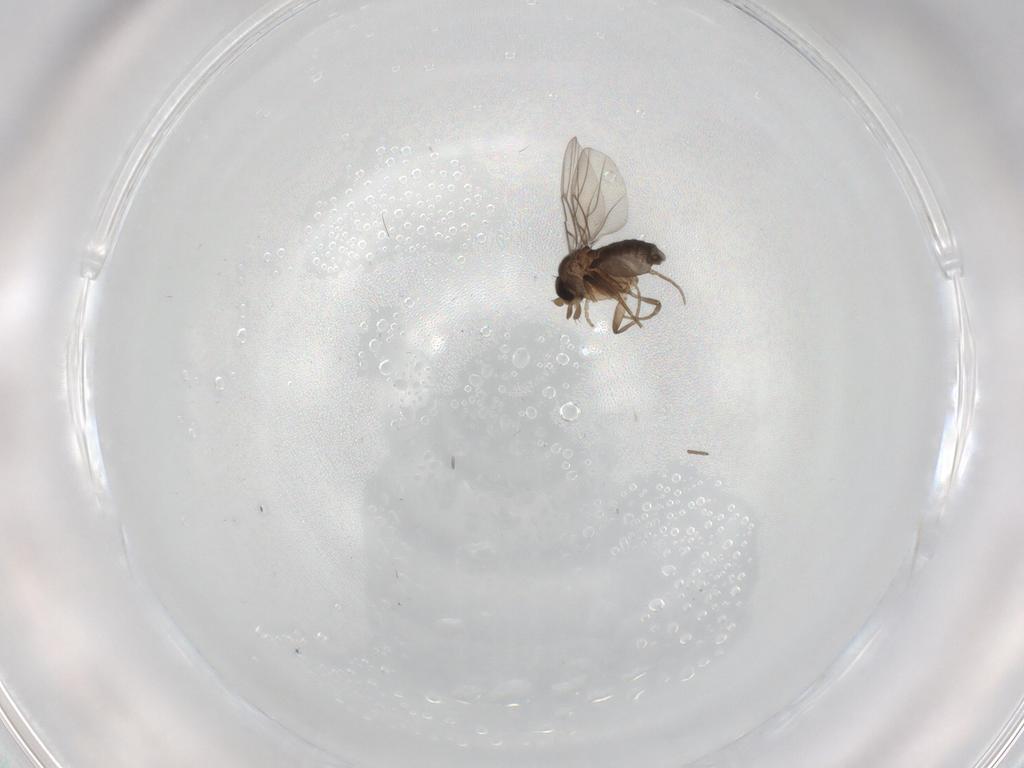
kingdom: Animalia
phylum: Arthropoda
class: Insecta
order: Diptera
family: Cecidomyiidae
